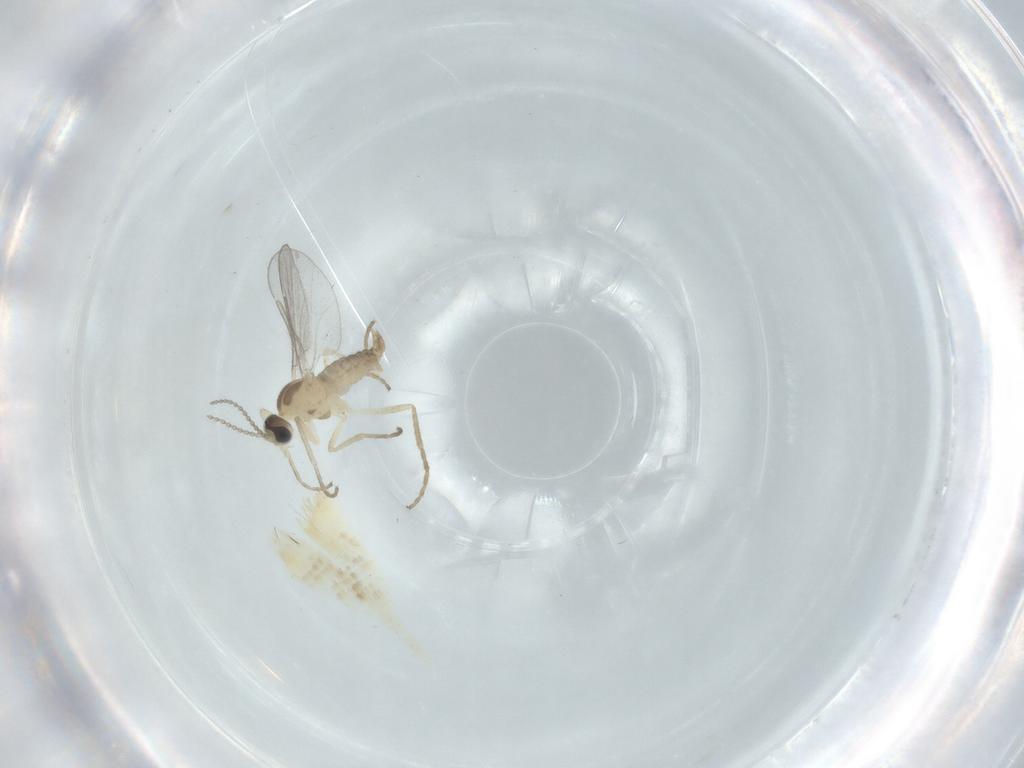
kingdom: Animalia
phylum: Arthropoda
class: Insecta
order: Diptera
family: Cecidomyiidae
